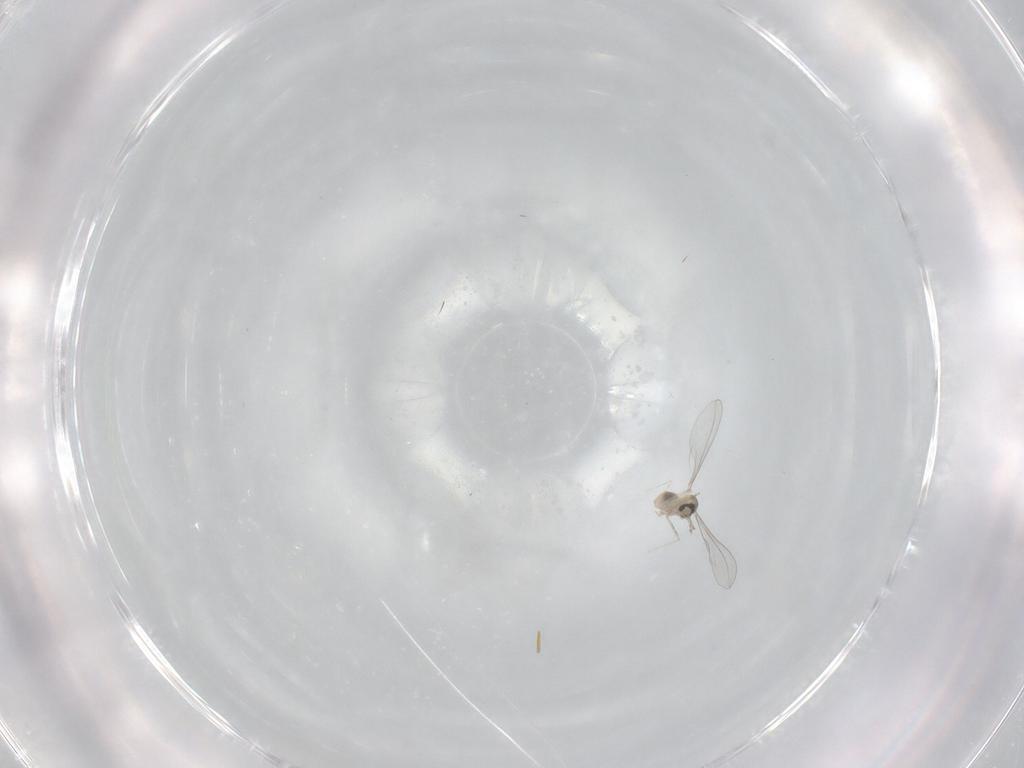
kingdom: Animalia
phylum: Arthropoda
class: Insecta
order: Diptera
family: Cecidomyiidae
